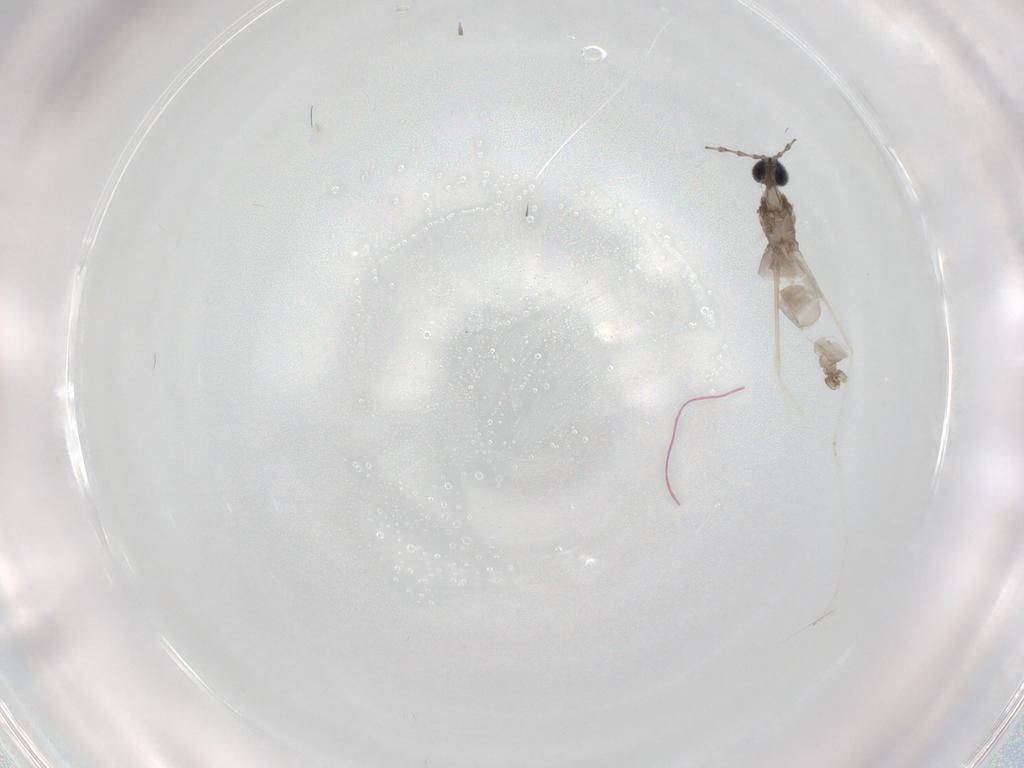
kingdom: Animalia
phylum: Arthropoda
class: Insecta
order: Diptera
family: Cecidomyiidae
